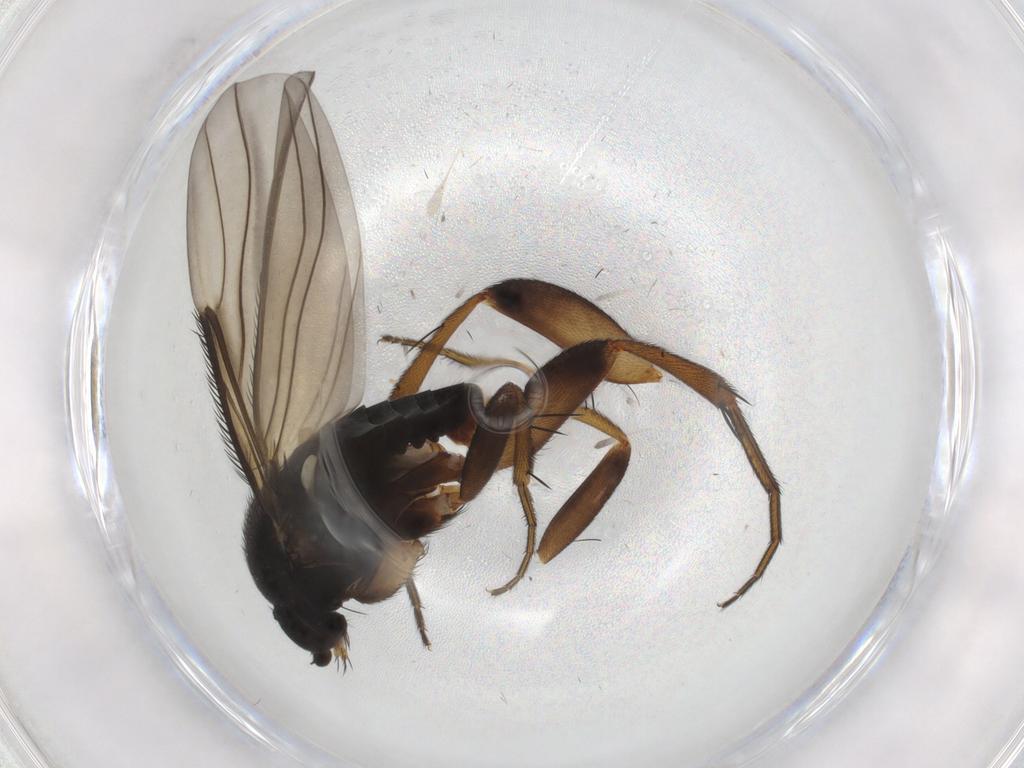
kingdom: Animalia
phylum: Arthropoda
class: Insecta
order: Diptera
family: Phoridae
